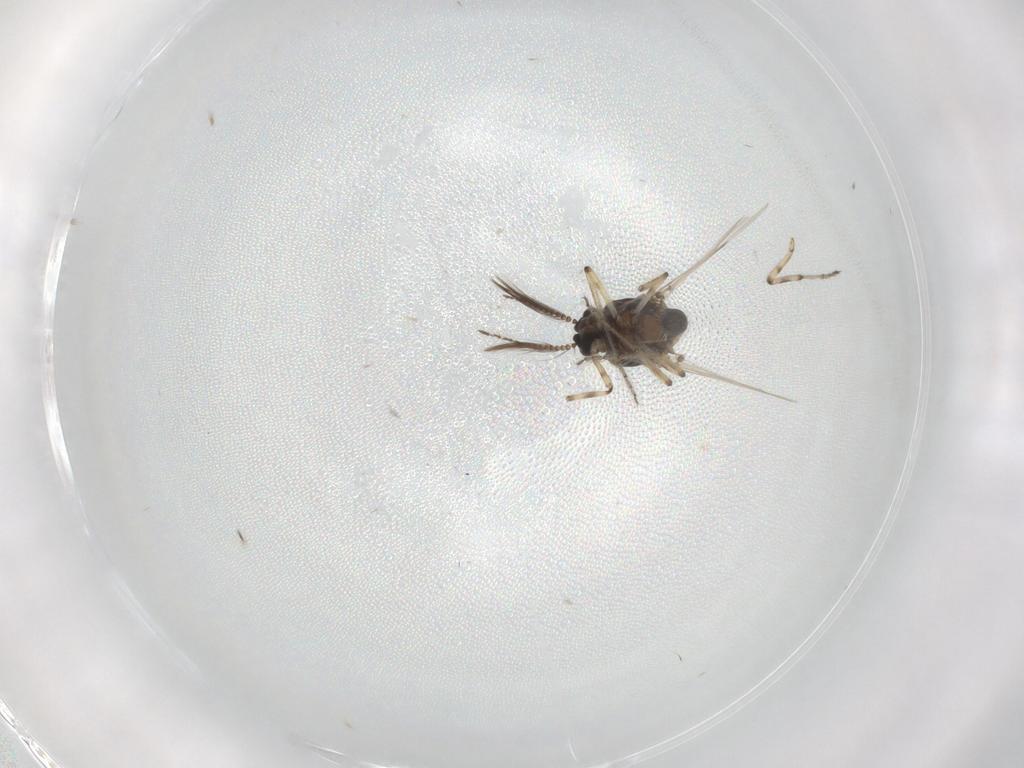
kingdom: Animalia
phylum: Arthropoda
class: Insecta
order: Diptera
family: Ceratopogonidae
